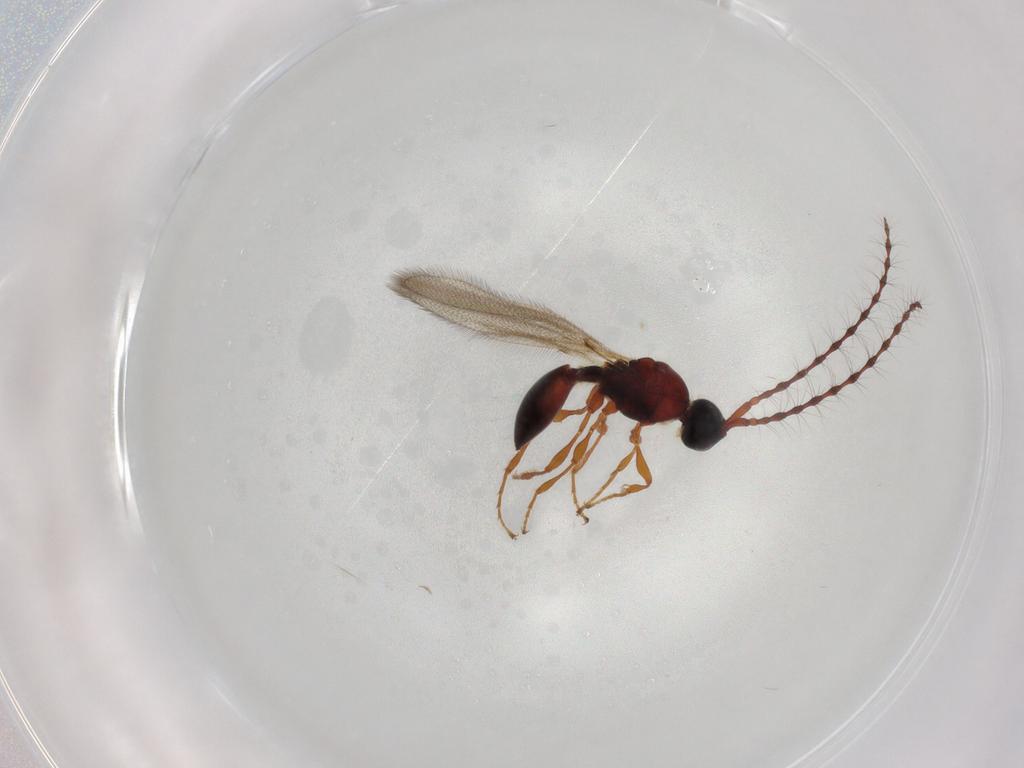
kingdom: Animalia
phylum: Arthropoda
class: Insecta
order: Hymenoptera
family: Diapriidae
